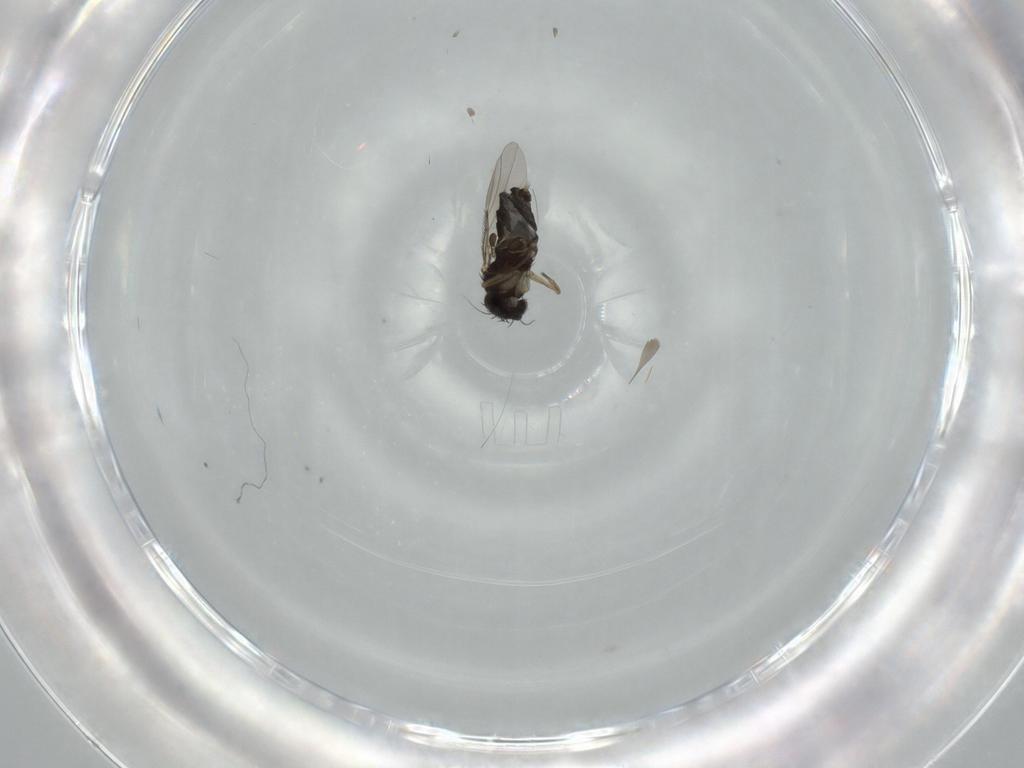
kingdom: Animalia
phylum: Arthropoda
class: Insecta
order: Diptera
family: Phoridae
